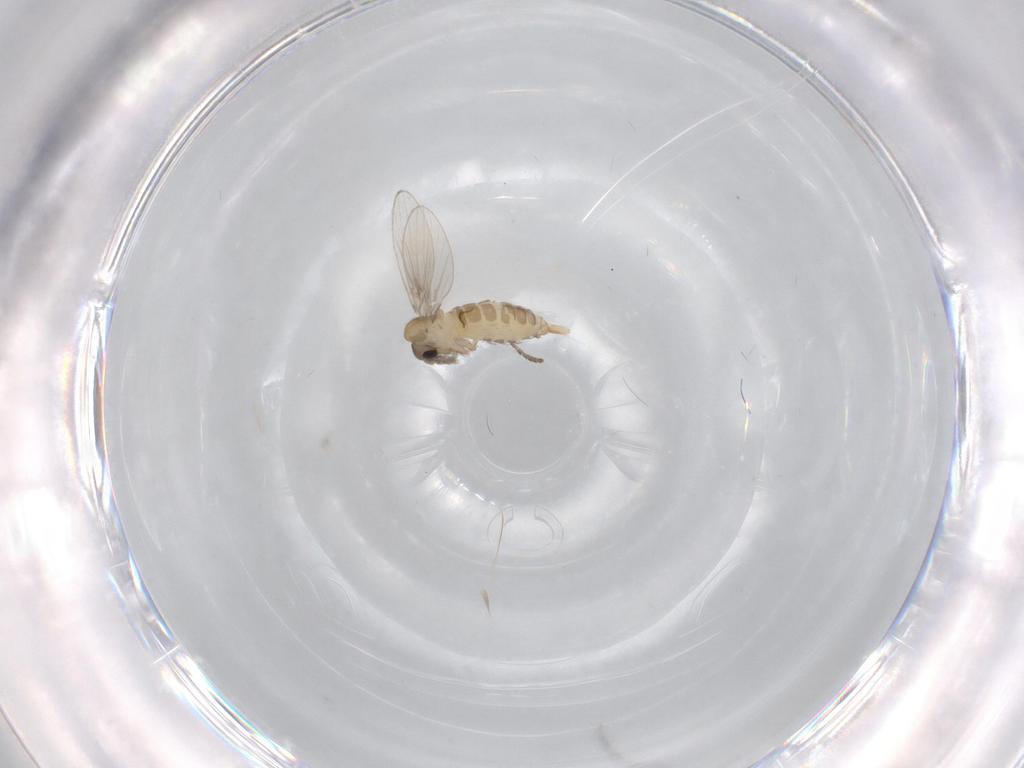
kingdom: Animalia
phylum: Arthropoda
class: Insecta
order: Diptera
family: Psychodidae
